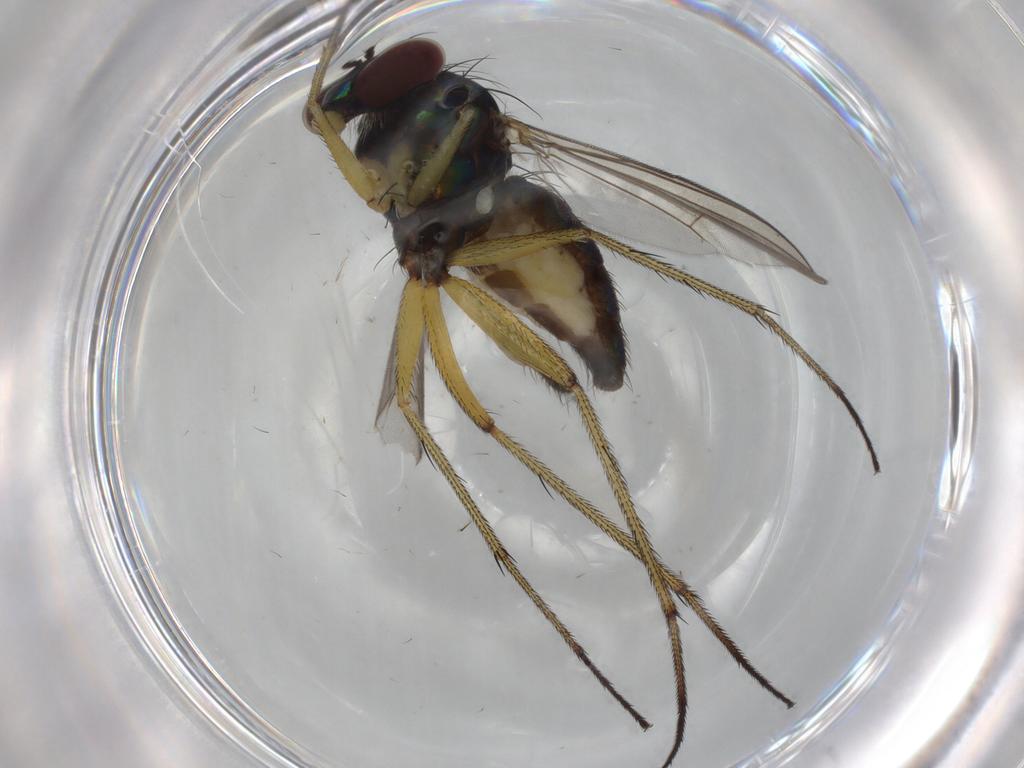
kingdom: Animalia
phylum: Arthropoda
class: Insecta
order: Diptera
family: Dolichopodidae
